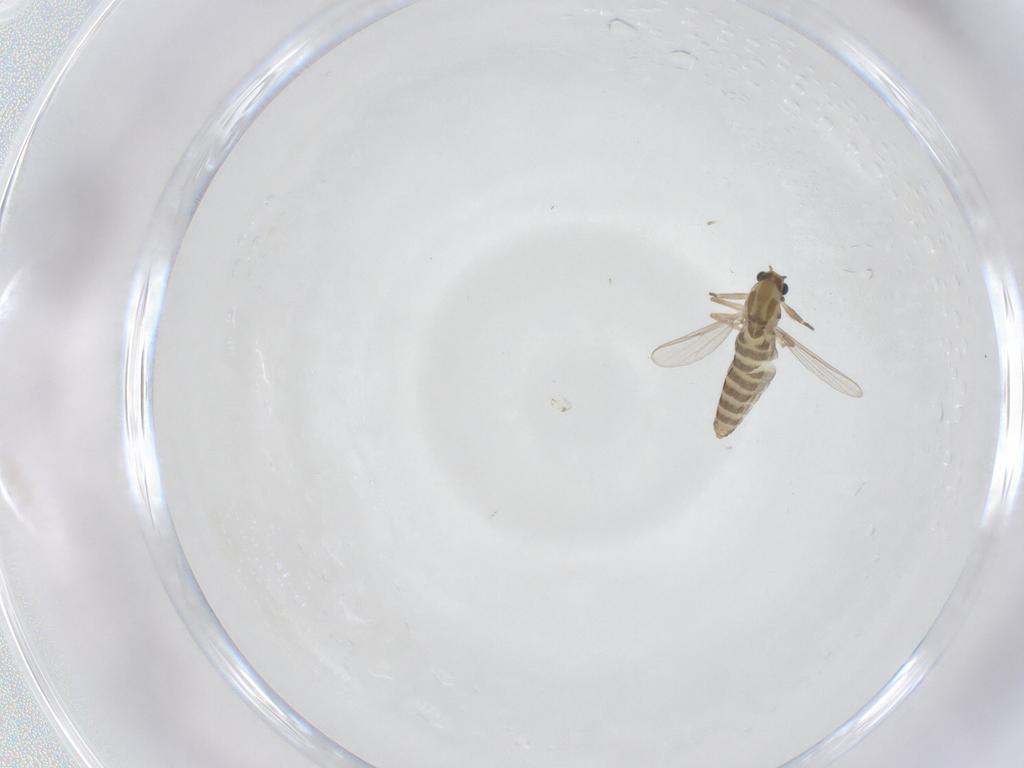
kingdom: Animalia
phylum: Arthropoda
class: Insecta
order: Diptera
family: Chironomidae
